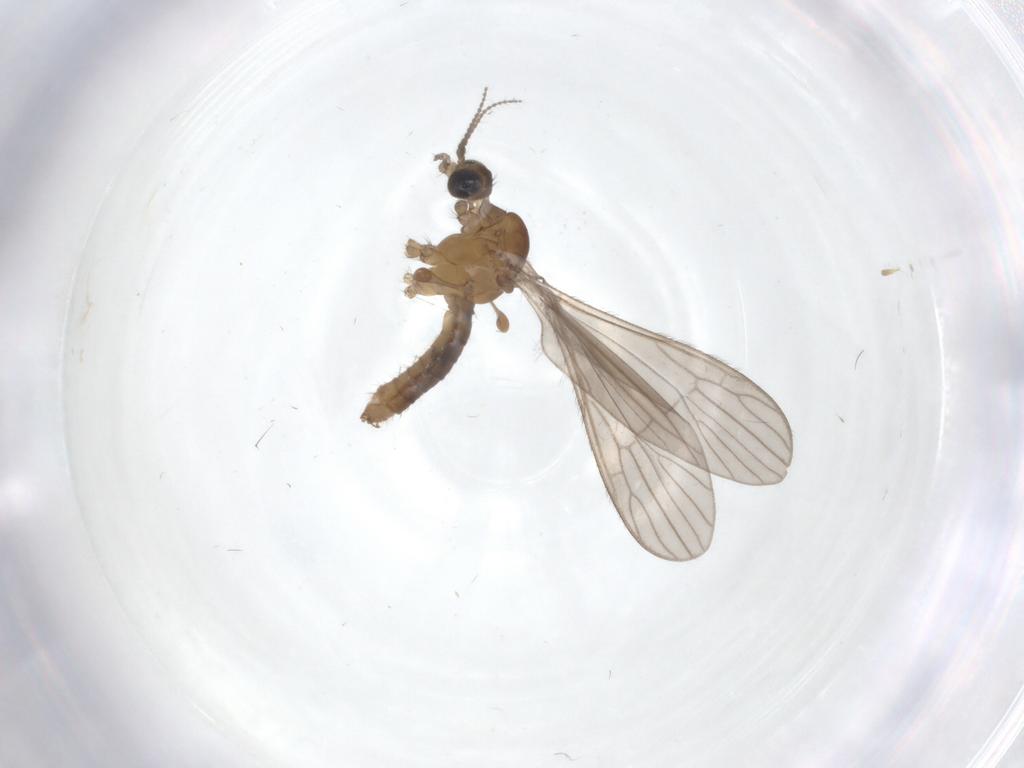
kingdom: Animalia
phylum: Arthropoda
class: Insecta
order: Diptera
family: Limoniidae
